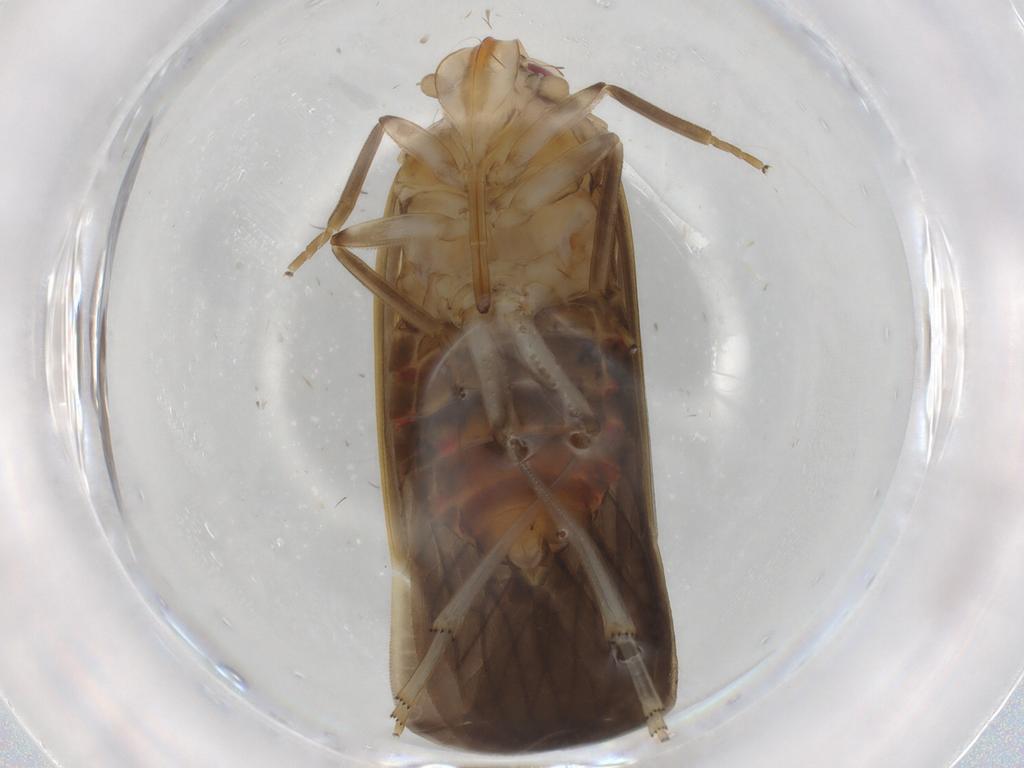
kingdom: Animalia
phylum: Arthropoda
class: Insecta
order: Hemiptera
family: Achilidae
